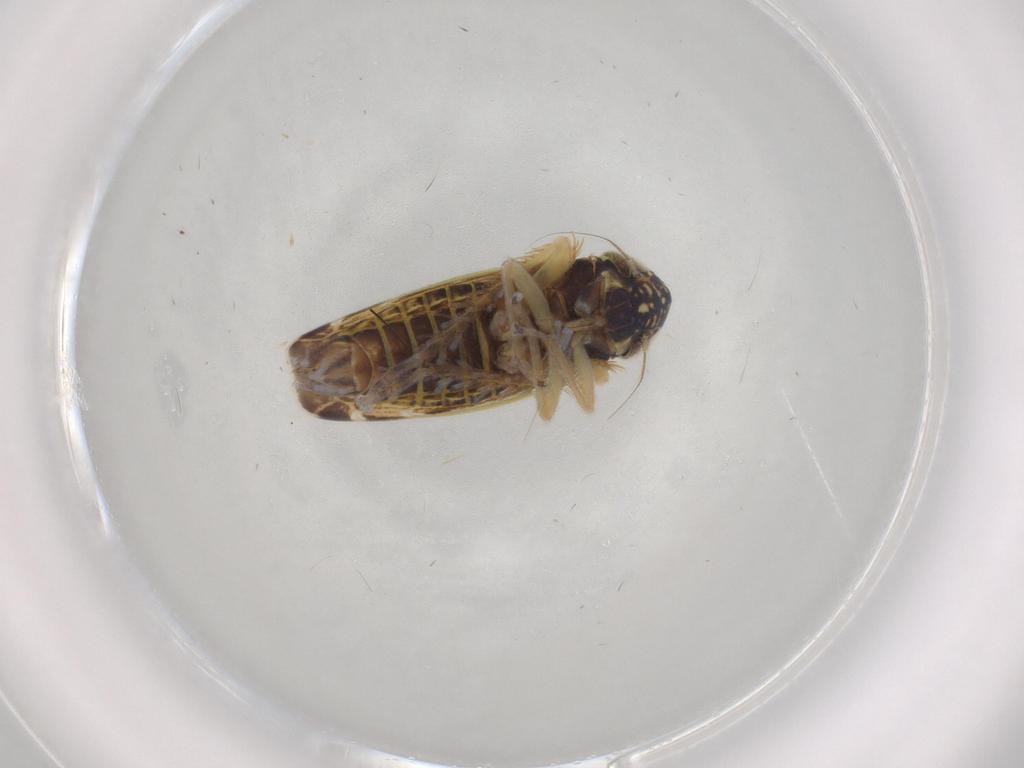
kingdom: Animalia
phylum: Arthropoda
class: Insecta
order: Hemiptera
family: Cicadellidae
